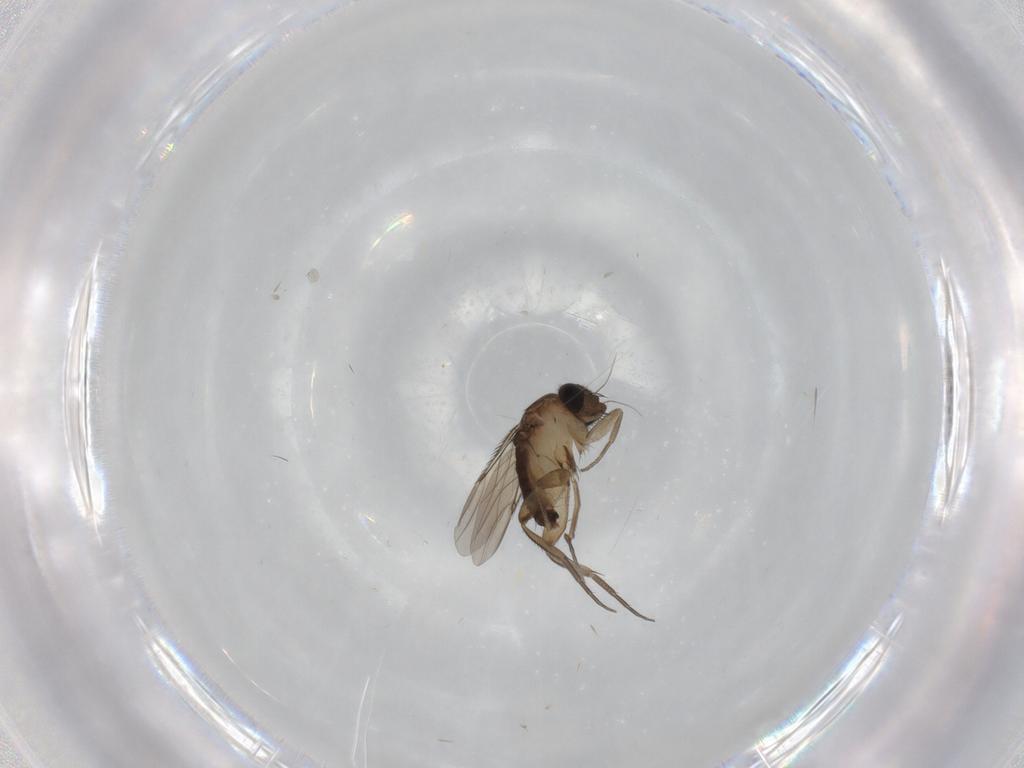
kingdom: Animalia
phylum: Arthropoda
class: Insecta
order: Diptera
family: Phoridae
